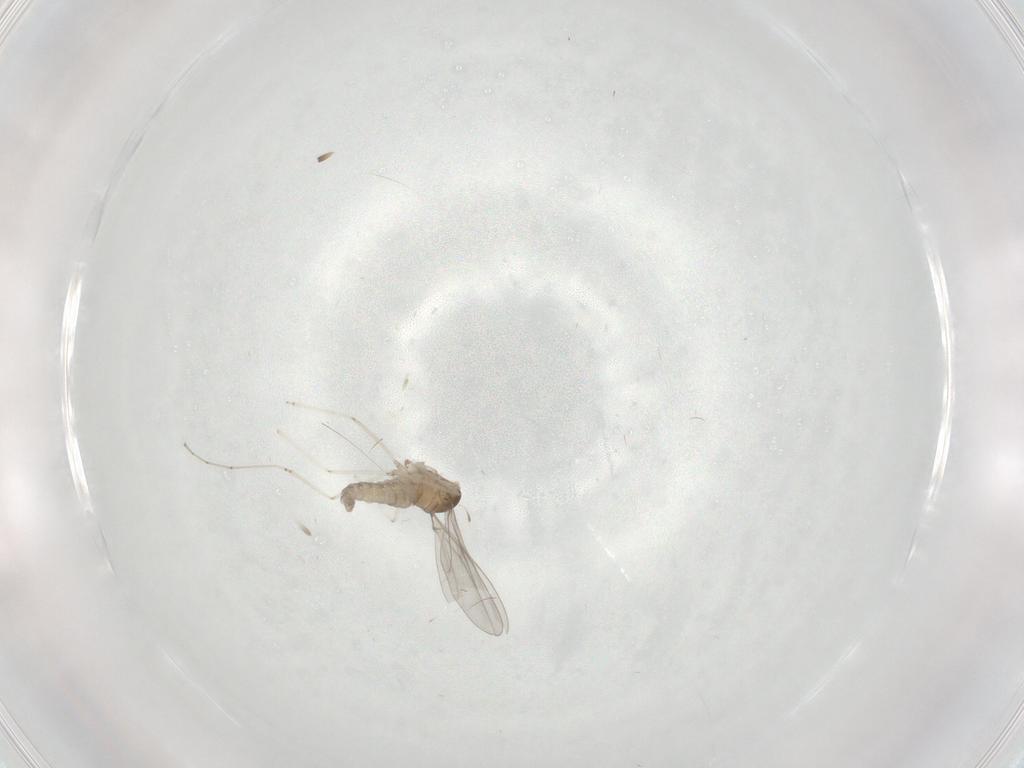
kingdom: Animalia
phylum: Arthropoda
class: Insecta
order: Diptera
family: Cecidomyiidae
